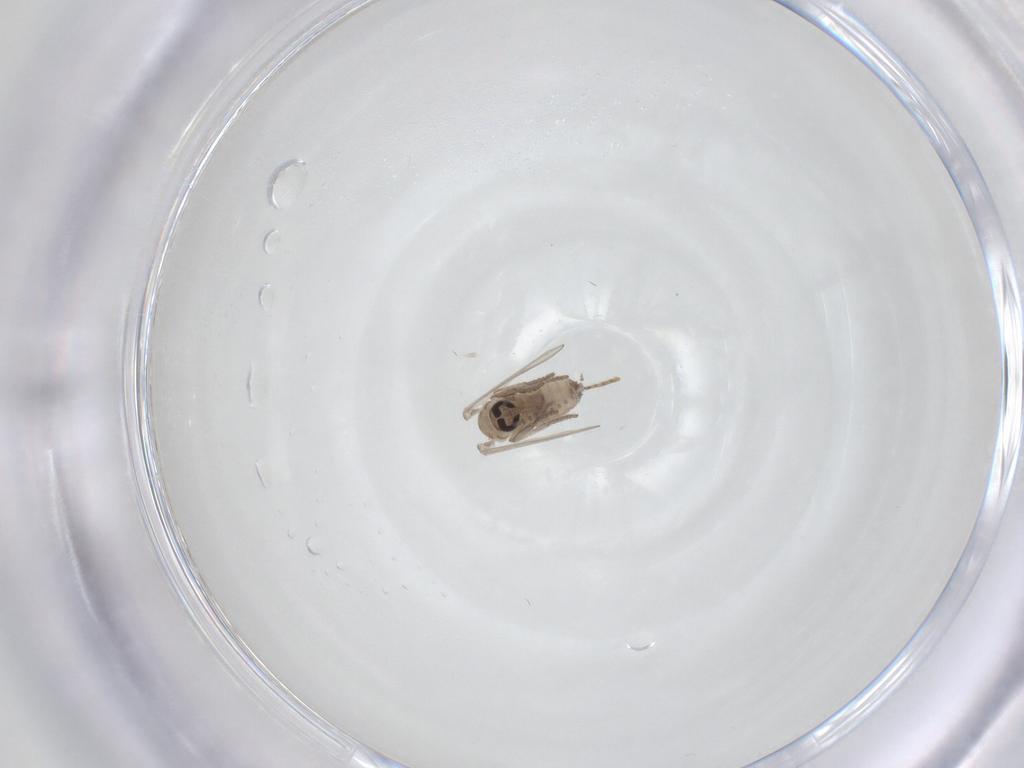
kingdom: Animalia
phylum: Arthropoda
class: Insecta
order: Diptera
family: Psychodidae
